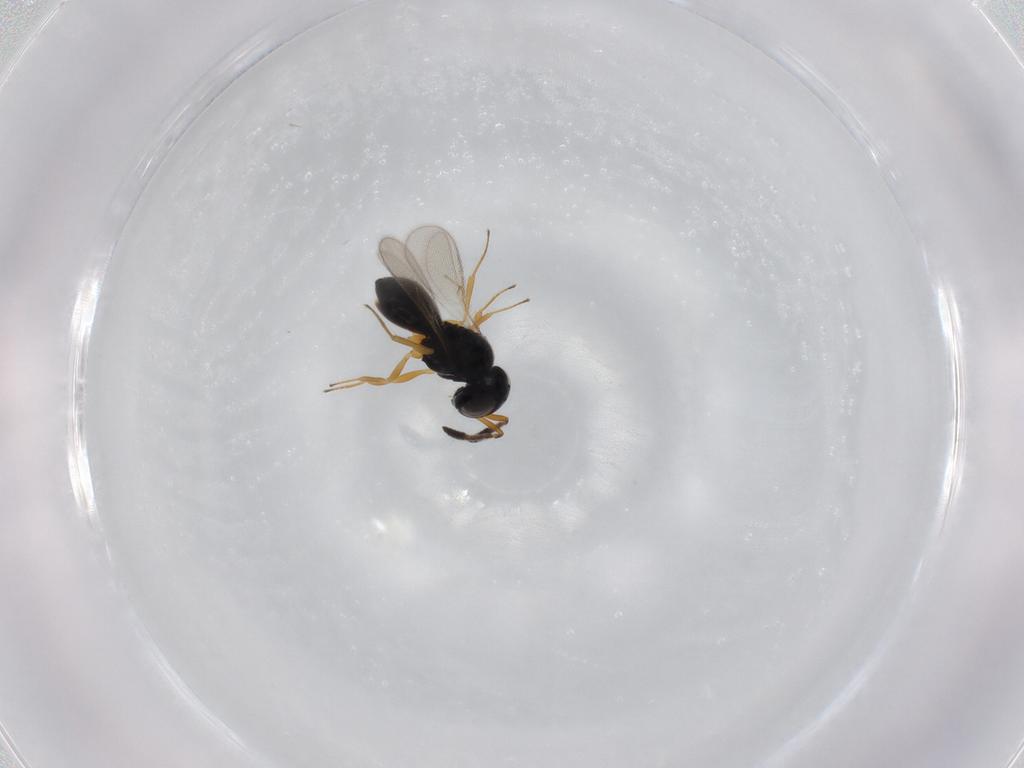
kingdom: Animalia
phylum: Arthropoda
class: Insecta
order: Hymenoptera
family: Scelionidae
